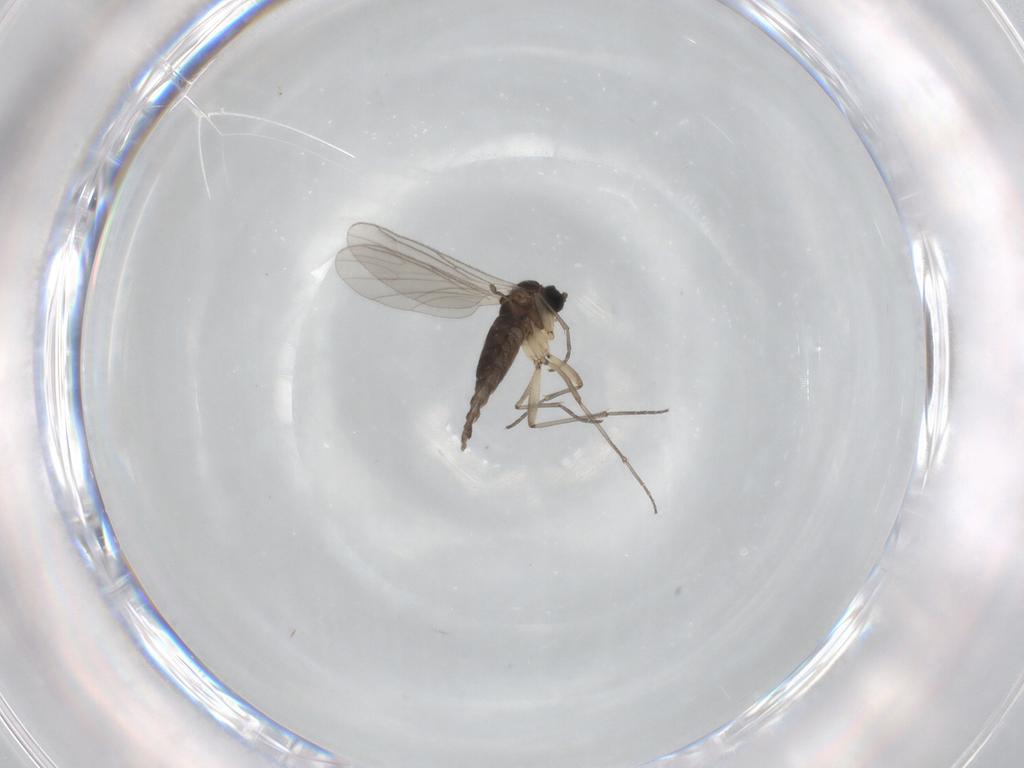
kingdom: Animalia
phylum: Arthropoda
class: Insecta
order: Diptera
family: Sciaridae
